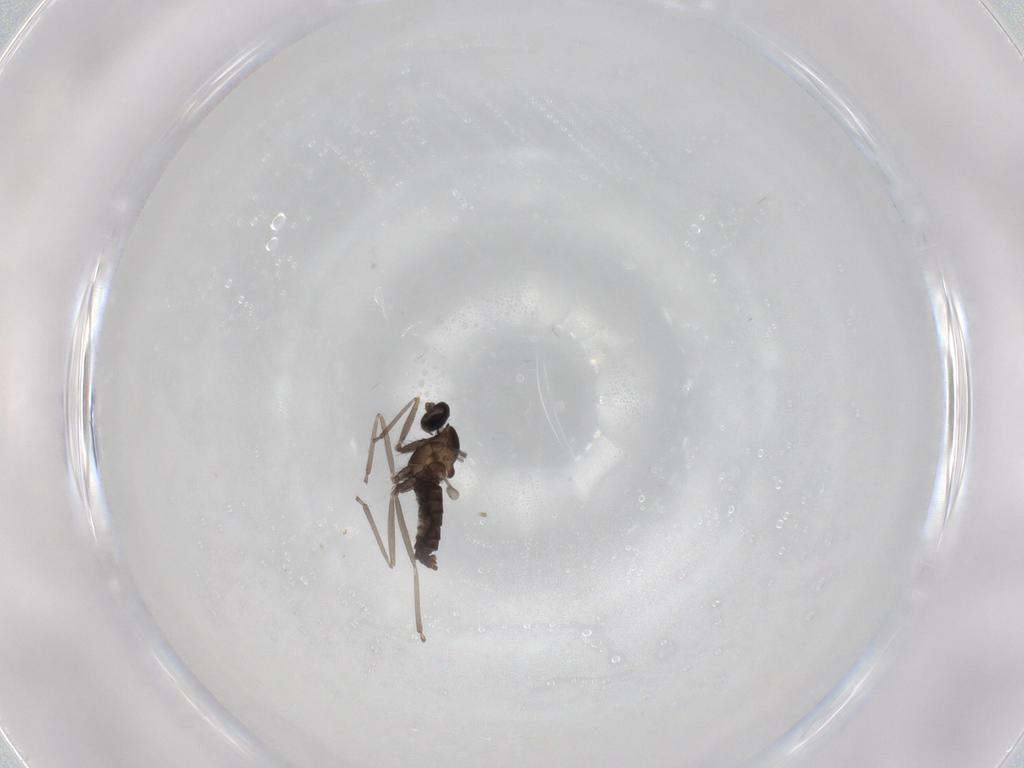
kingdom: Animalia
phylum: Arthropoda
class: Insecta
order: Diptera
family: Cecidomyiidae
